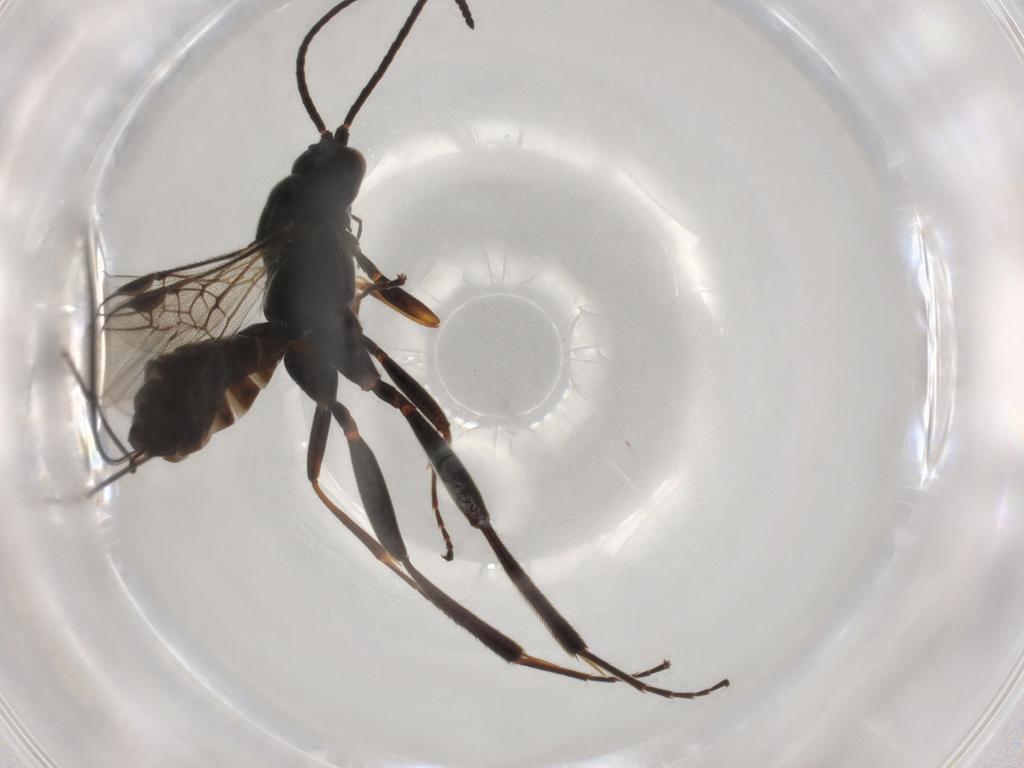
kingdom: Animalia
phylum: Arthropoda
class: Insecta
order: Hymenoptera
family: Braconidae
